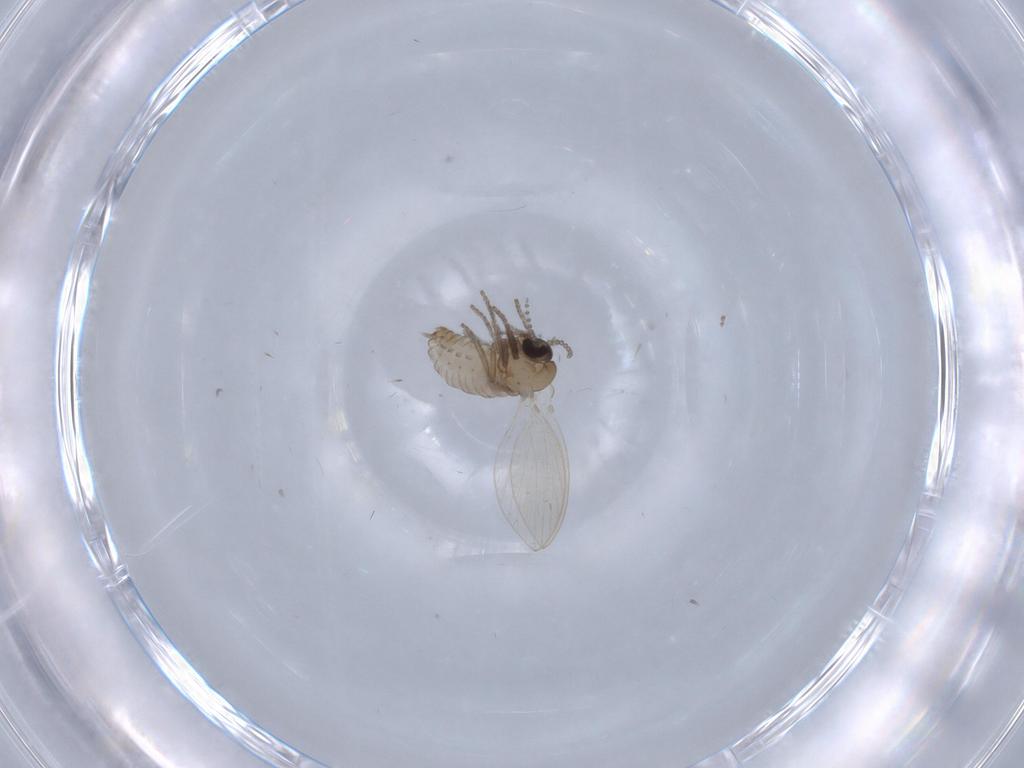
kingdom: Animalia
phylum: Arthropoda
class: Insecta
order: Diptera
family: Psychodidae
